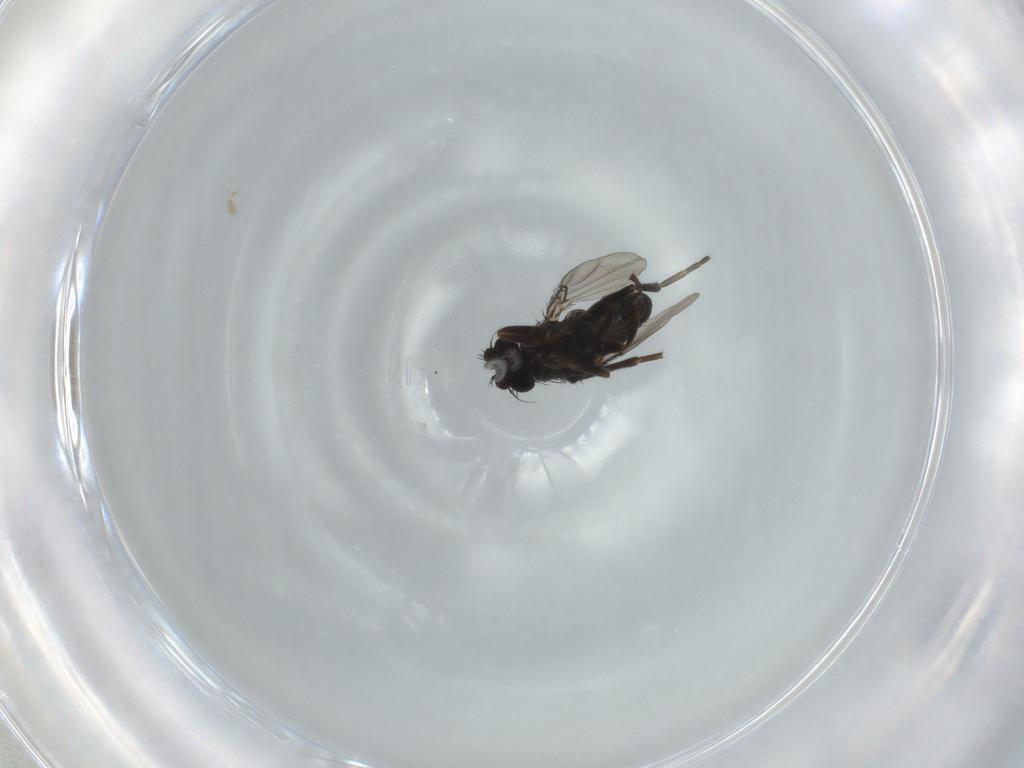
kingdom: Animalia
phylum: Arthropoda
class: Insecta
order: Diptera
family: Phoridae
